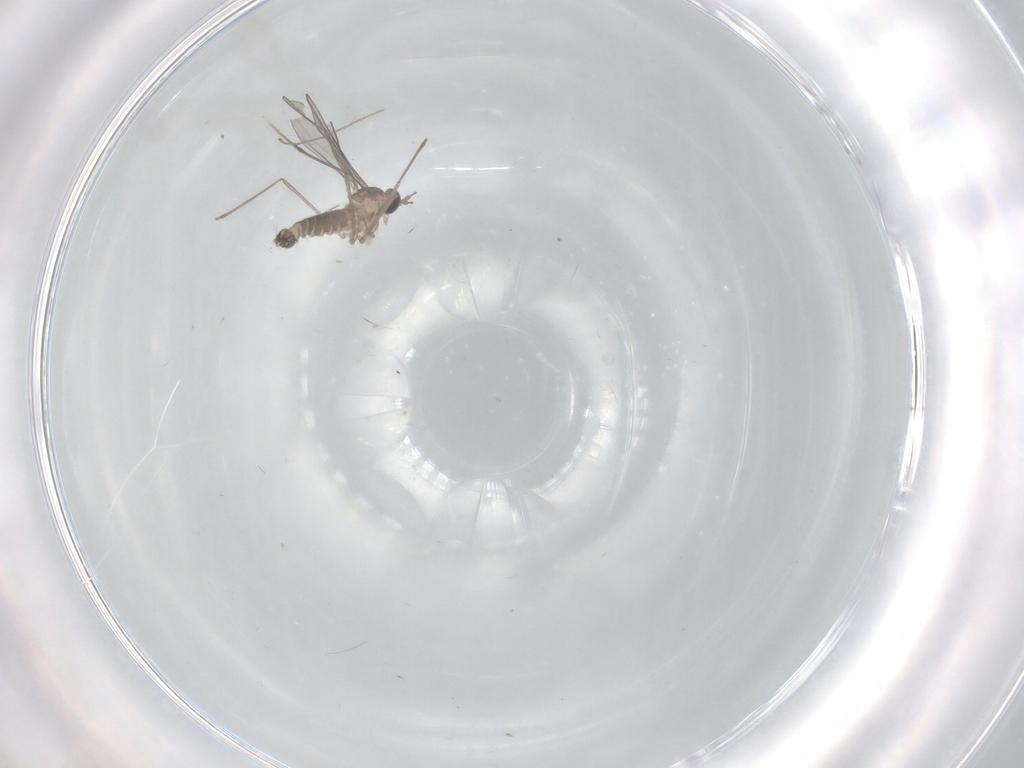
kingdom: Animalia
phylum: Arthropoda
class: Insecta
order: Diptera
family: Cecidomyiidae
